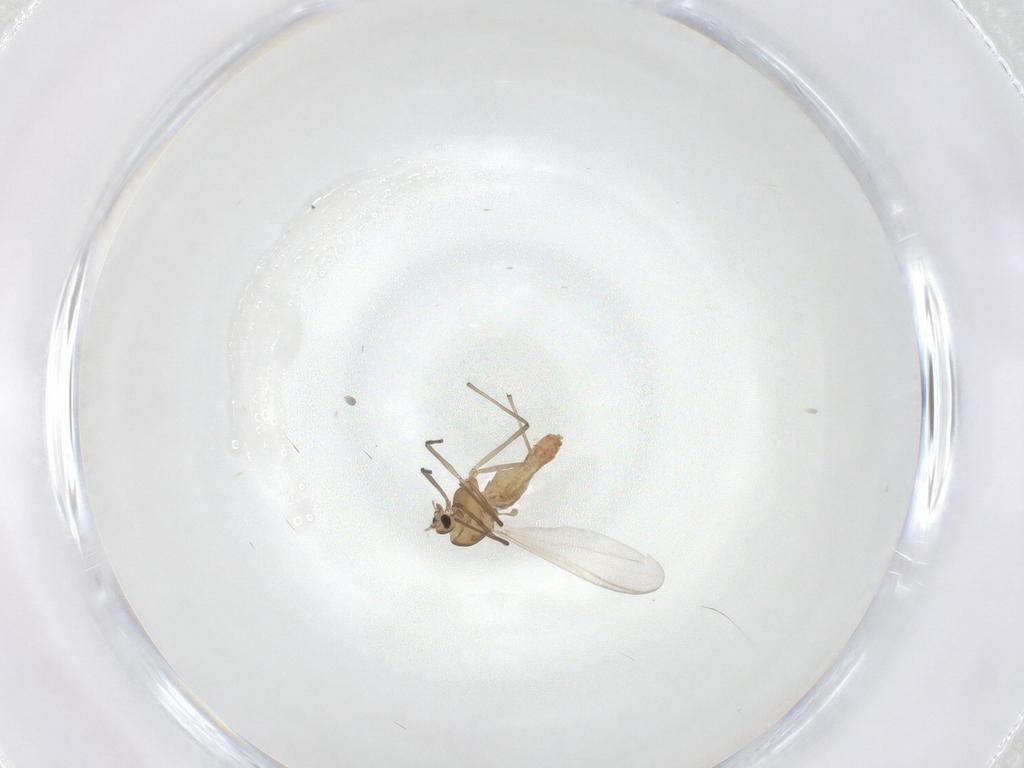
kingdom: Animalia
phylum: Arthropoda
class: Insecta
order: Diptera
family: Chironomidae
